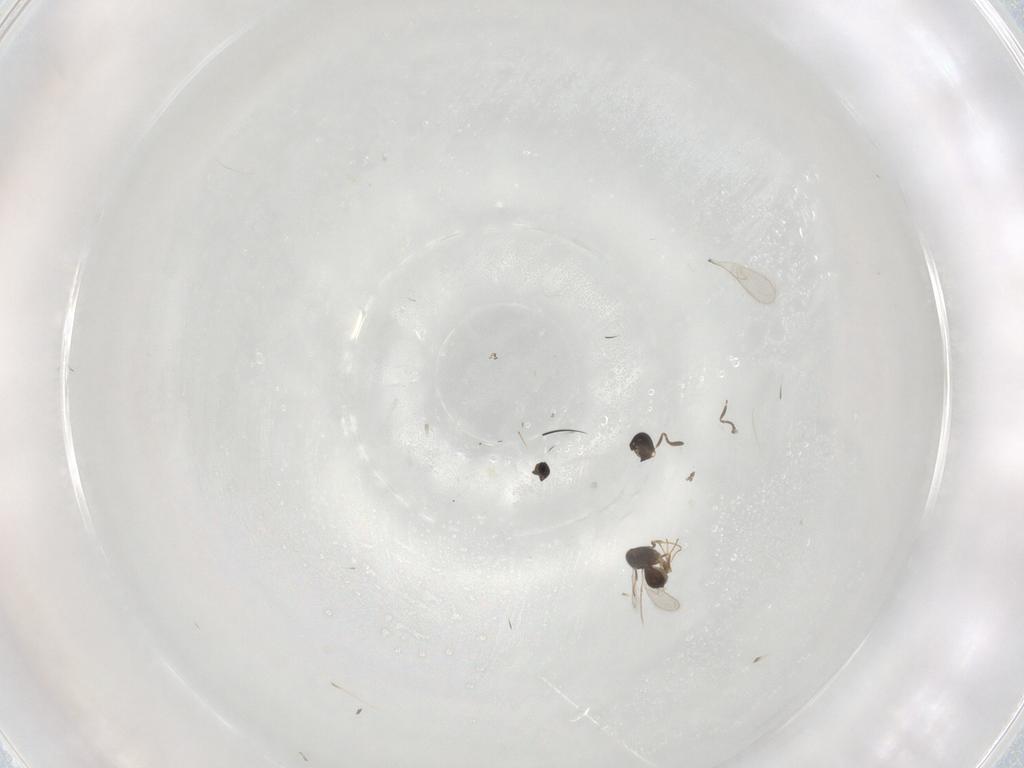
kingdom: Animalia
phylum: Arthropoda
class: Insecta
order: Hymenoptera
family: Scelionidae
